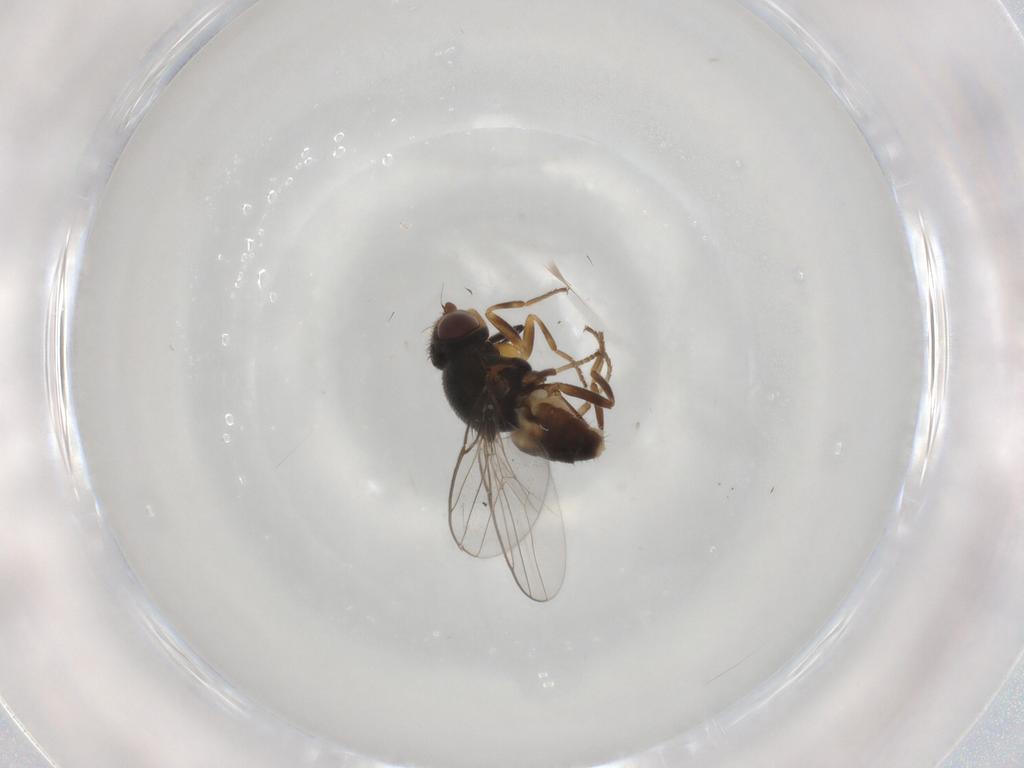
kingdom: Animalia
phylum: Arthropoda
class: Insecta
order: Diptera
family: Chloropidae
